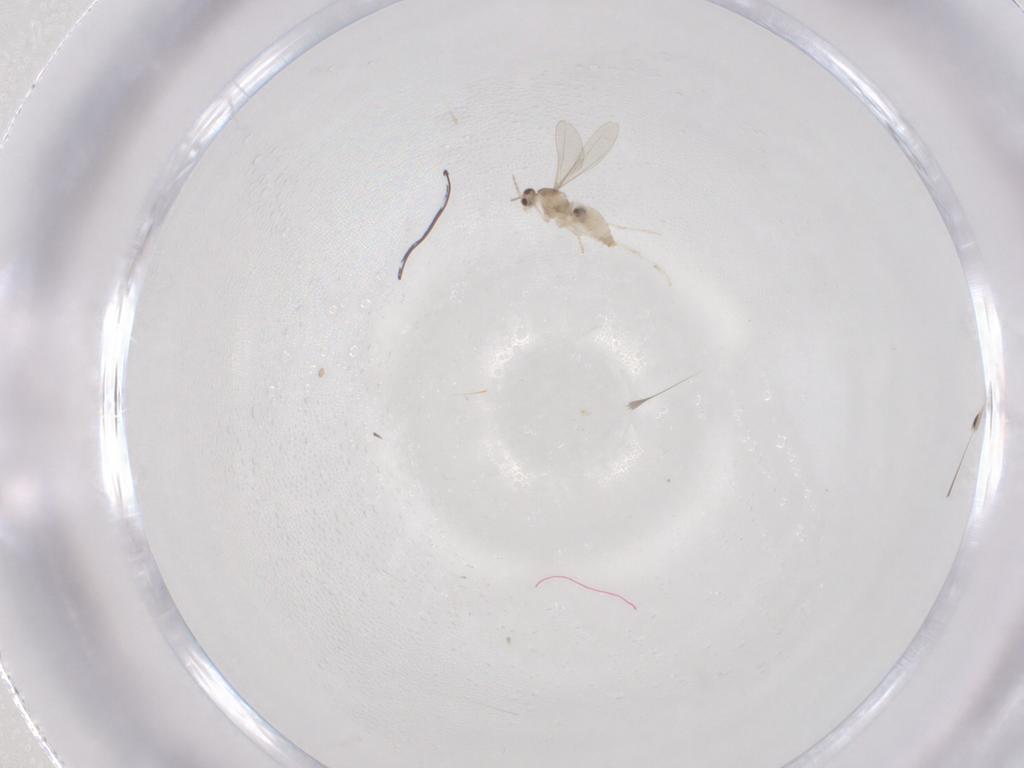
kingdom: Animalia
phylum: Arthropoda
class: Insecta
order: Diptera
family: Cecidomyiidae
